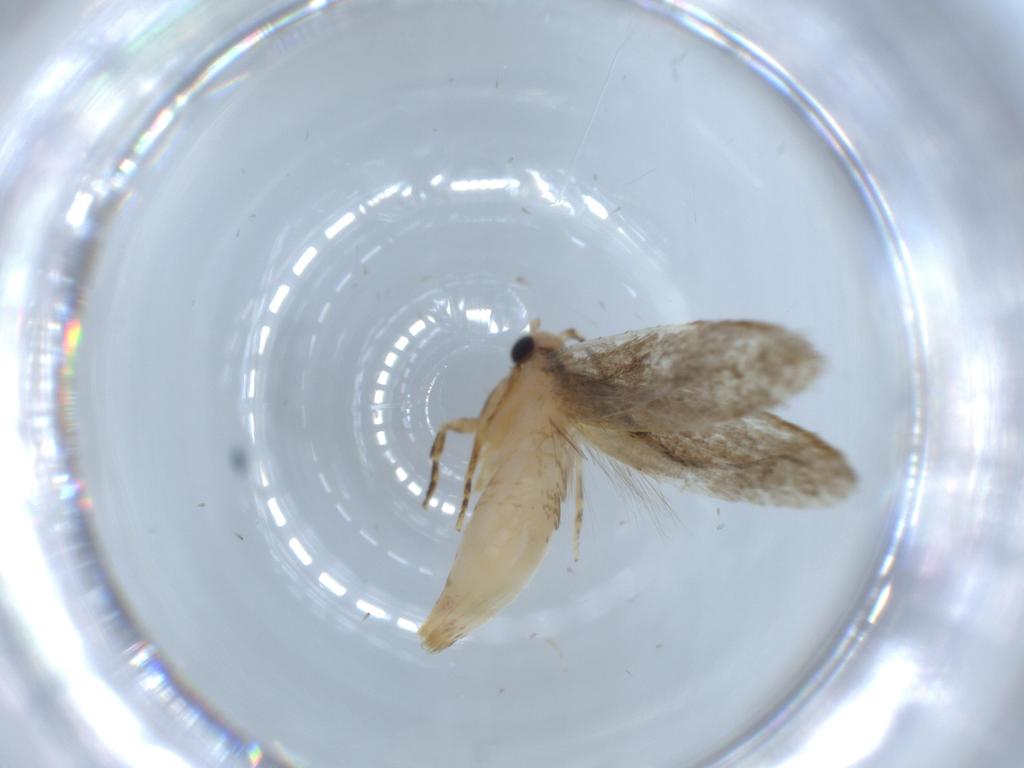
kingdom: Animalia
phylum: Arthropoda
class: Insecta
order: Lepidoptera
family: Tineidae
